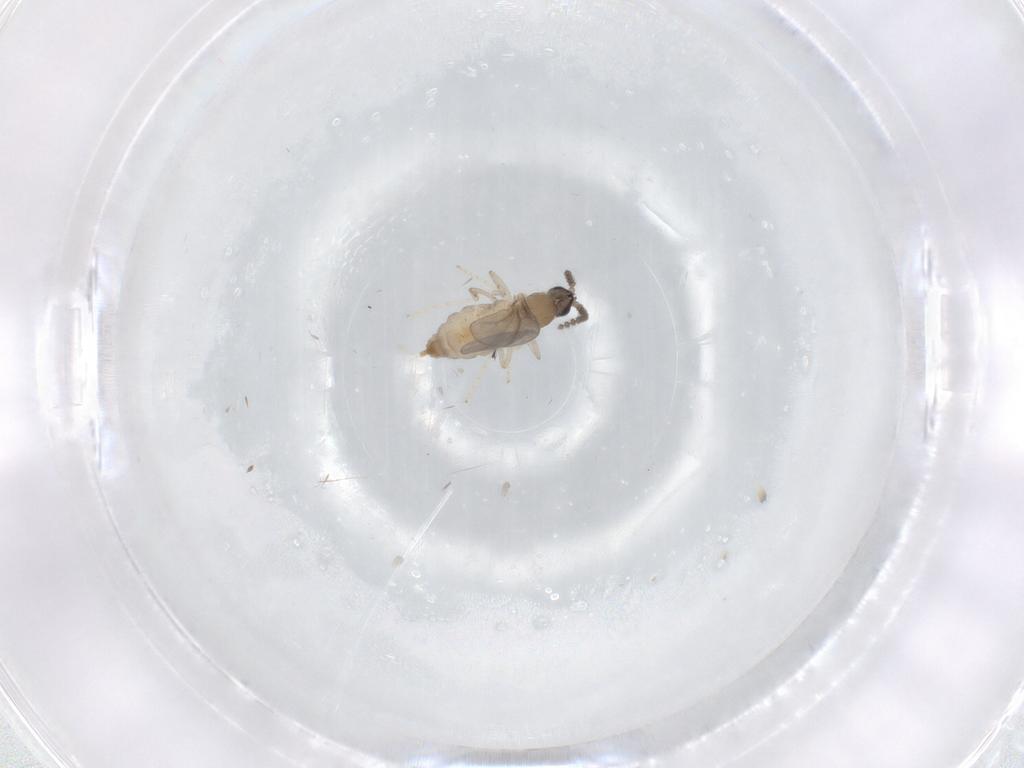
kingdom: Animalia
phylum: Arthropoda
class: Insecta
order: Diptera
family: Cecidomyiidae
